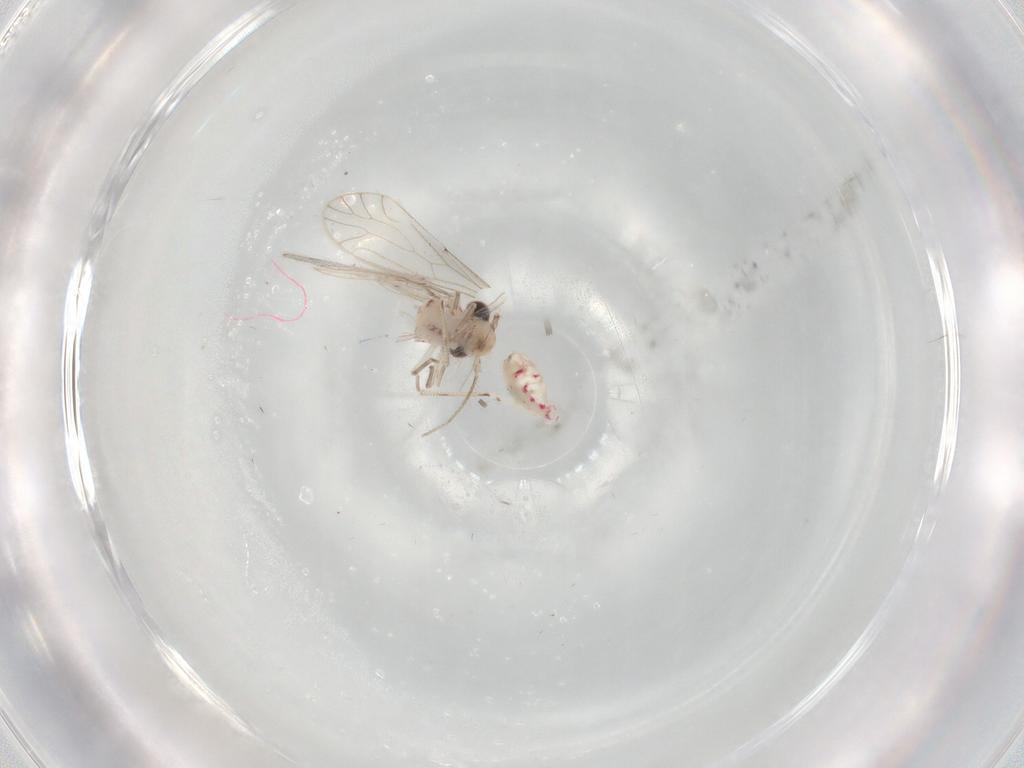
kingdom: Animalia
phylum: Arthropoda
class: Insecta
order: Psocodea
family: Caeciliusidae
